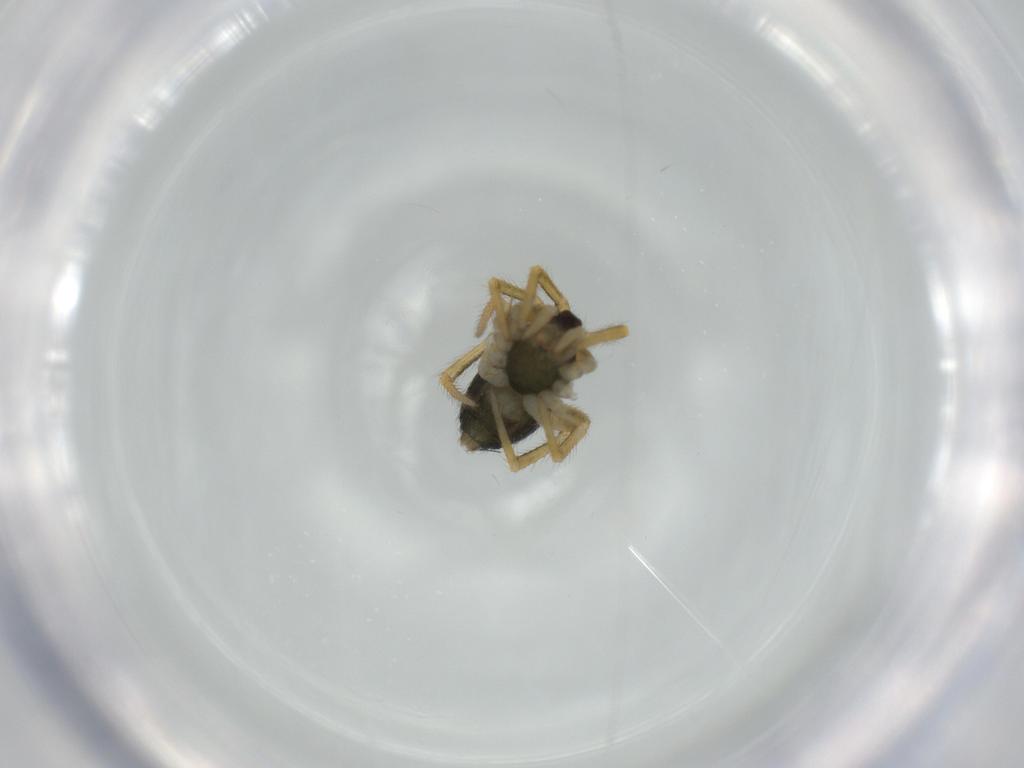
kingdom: Animalia
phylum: Arthropoda
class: Arachnida
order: Araneae
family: Theridiidae
